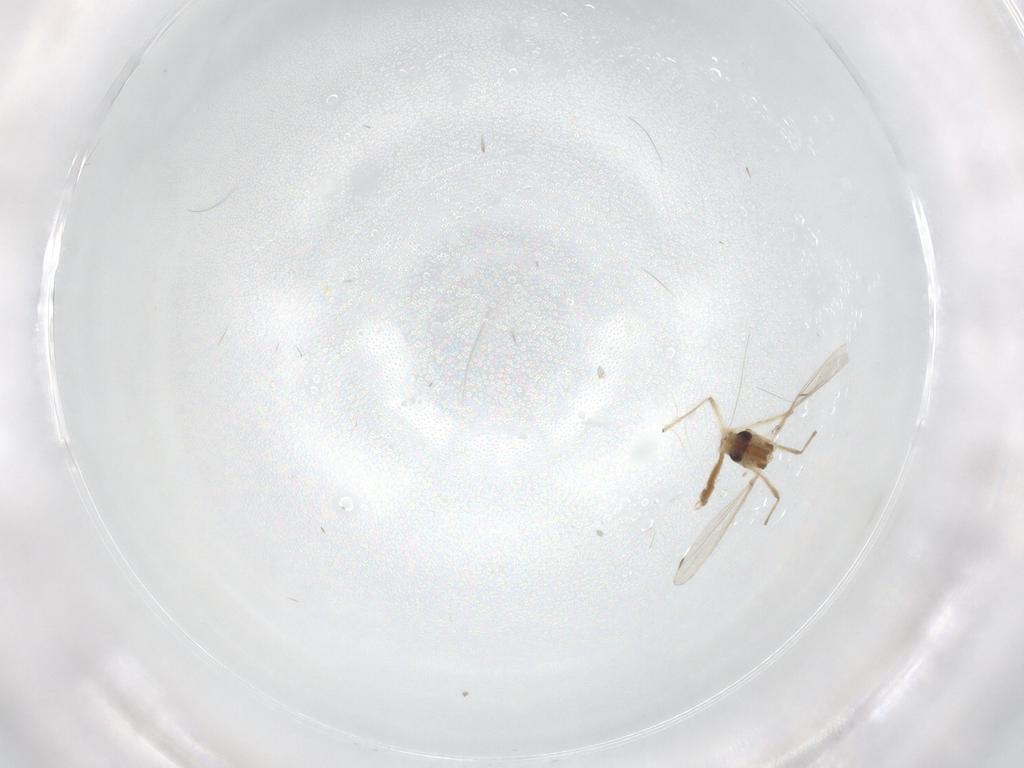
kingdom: Animalia
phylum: Arthropoda
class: Insecta
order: Diptera
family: Chironomidae
